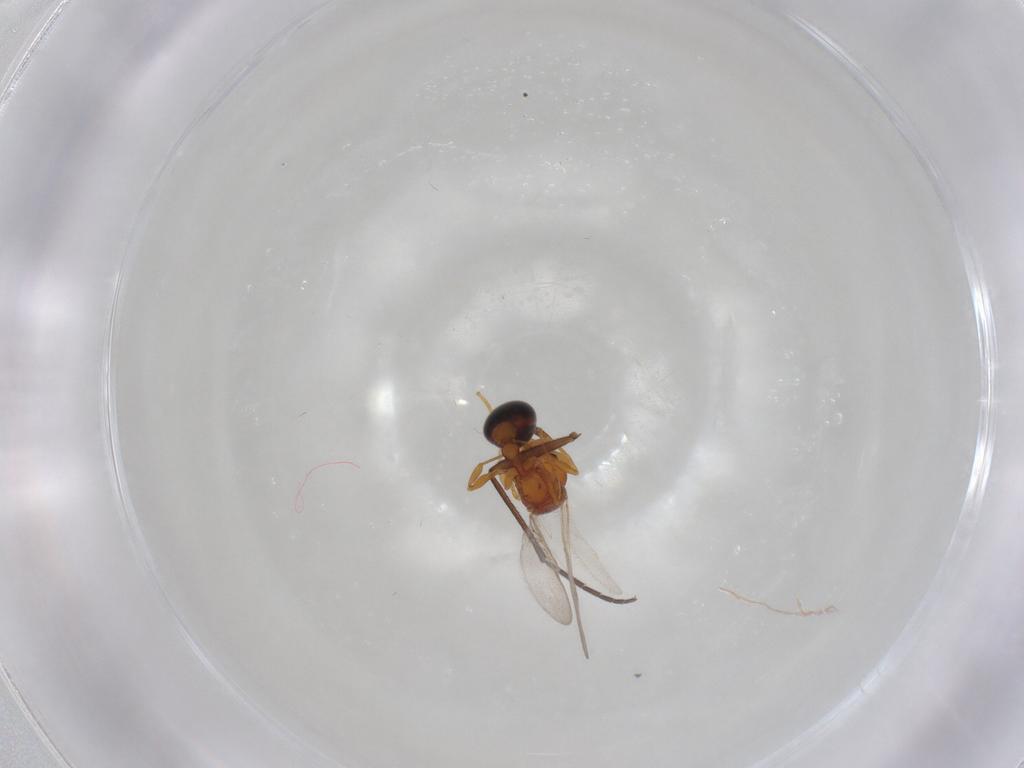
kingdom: Animalia
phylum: Arthropoda
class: Insecta
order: Hymenoptera
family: Formicidae
